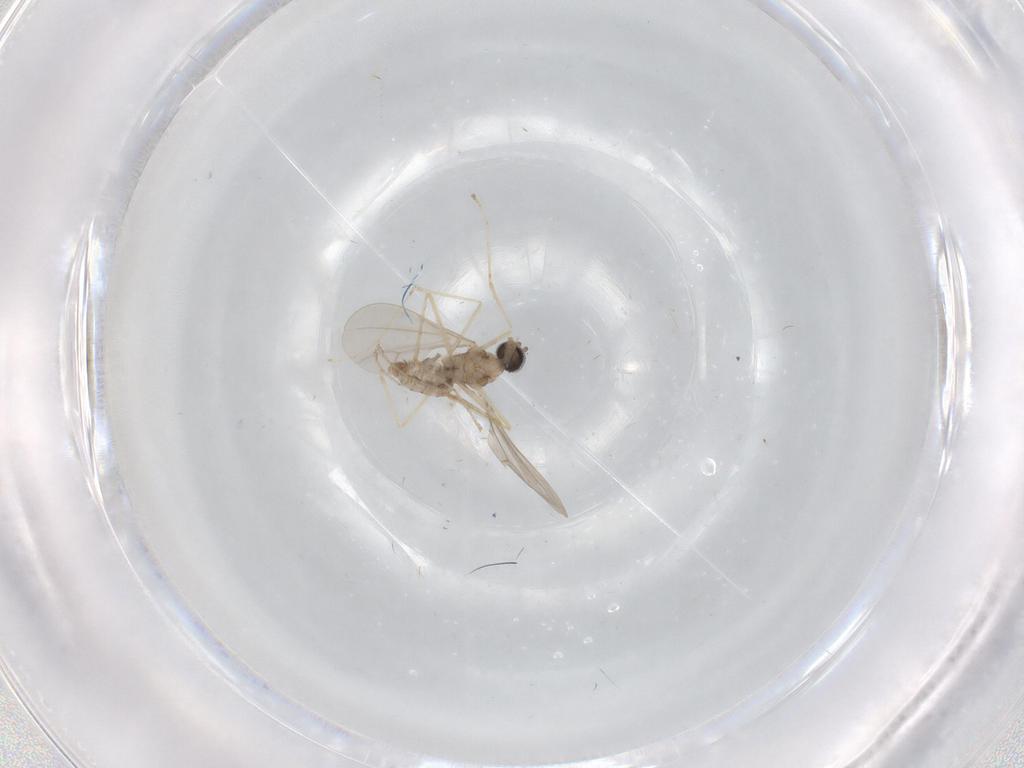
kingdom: Animalia
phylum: Arthropoda
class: Insecta
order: Diptera
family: Cecidomyiidae
